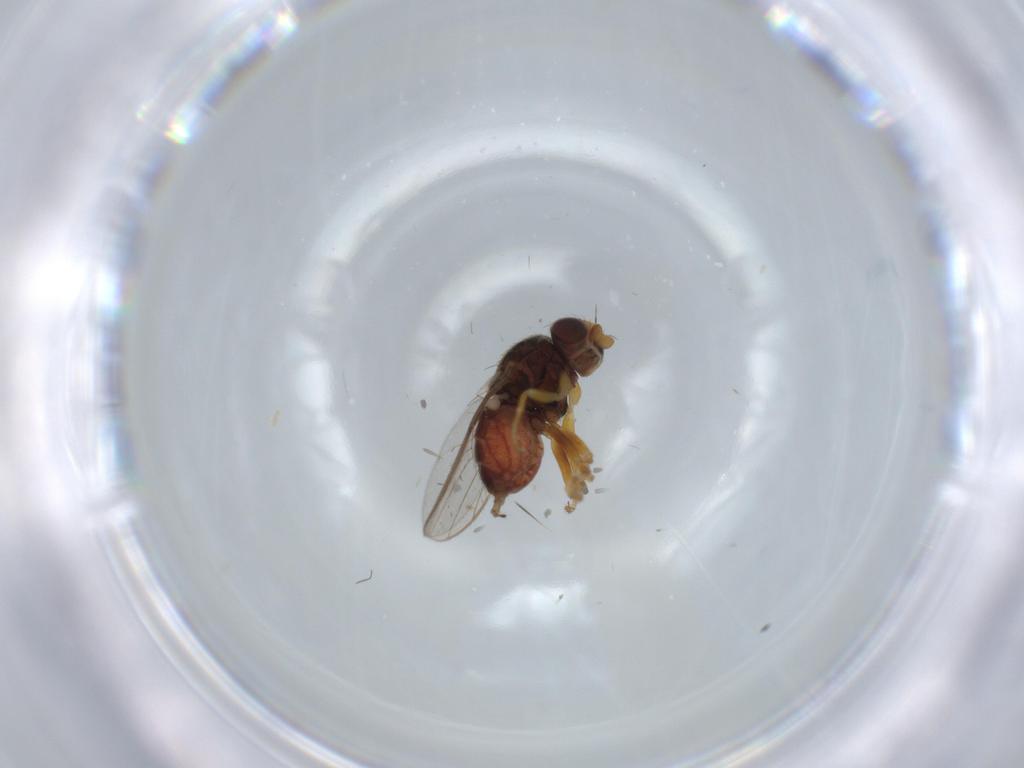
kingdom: Animalia
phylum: Arthropoda
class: Insecta
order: Diptera
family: Chloropidae
